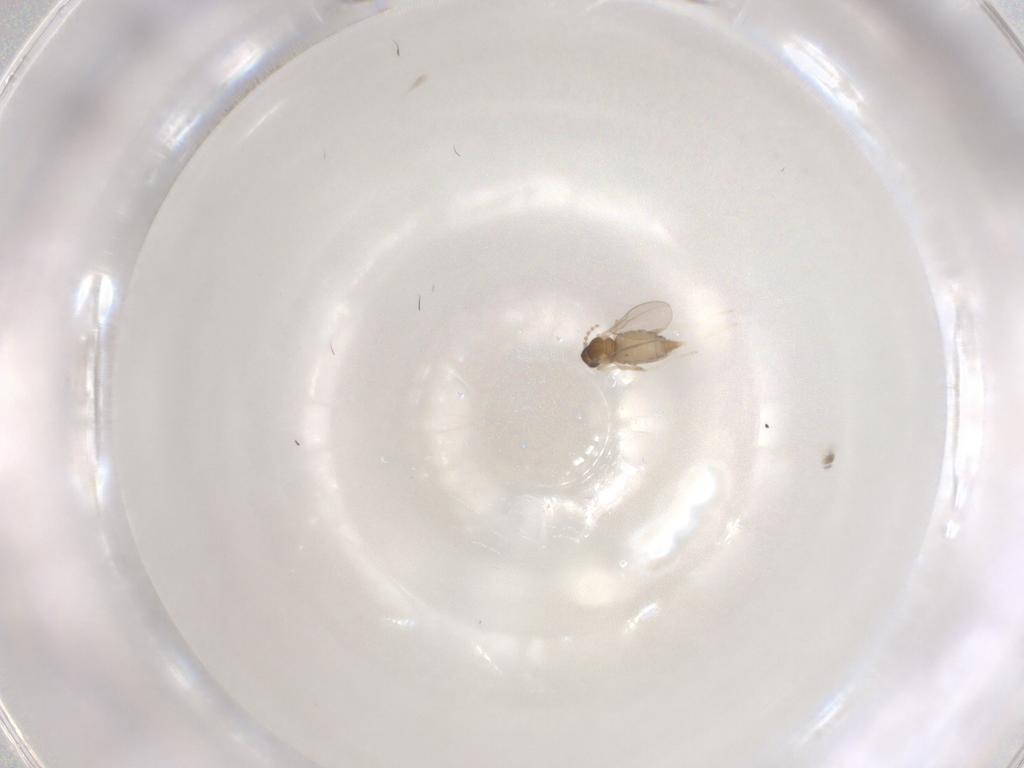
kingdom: Animalia
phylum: Arthropoda
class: Insecta
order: Diptera
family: Cecidomyiidae
